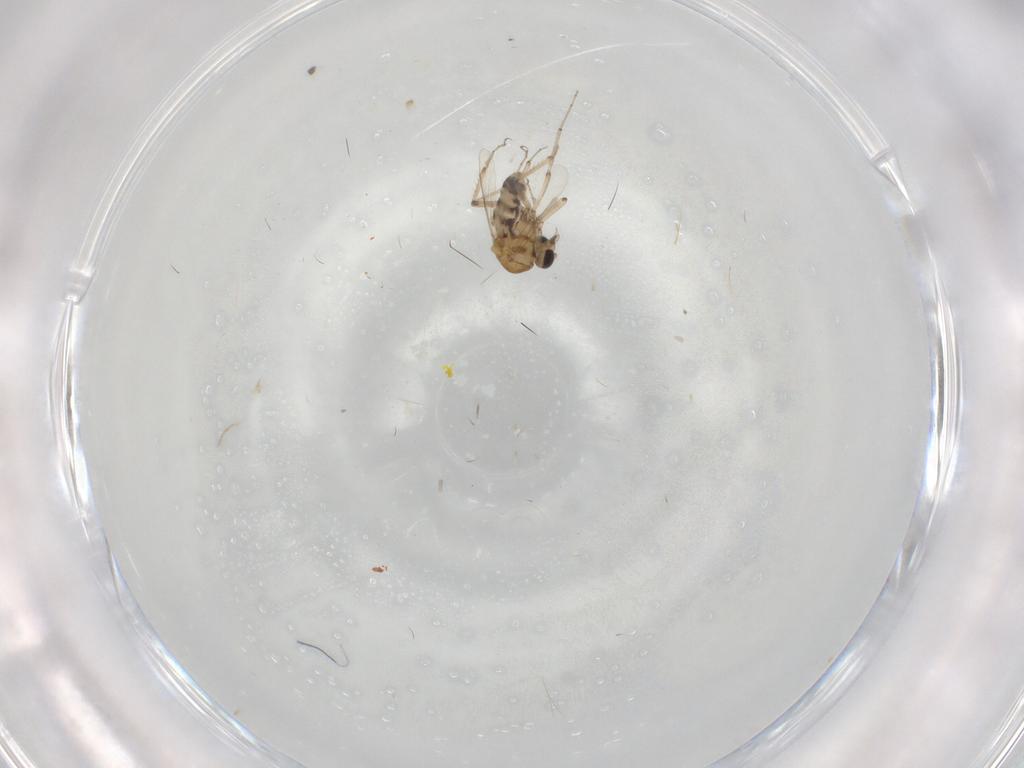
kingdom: Animalia
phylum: Arthropoda
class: Insecta
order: Diptera
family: Ceratopogonidae
